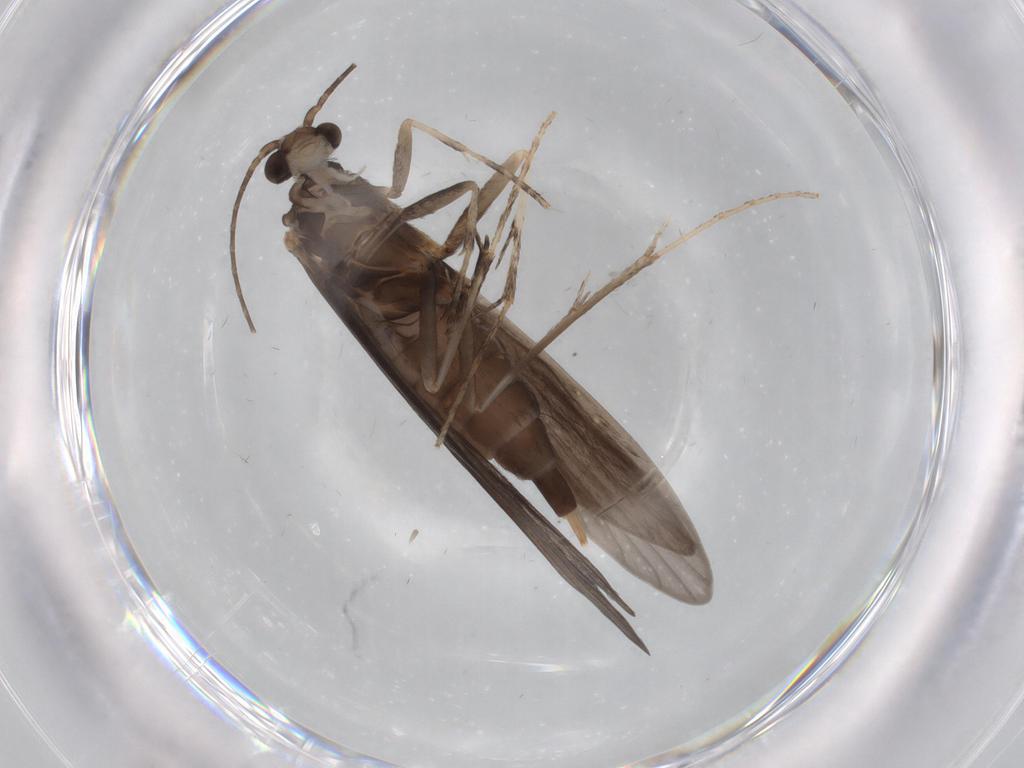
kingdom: Animalia
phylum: Arthropoda
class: Insecta
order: Trichoptera
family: Xiphocentronidae
